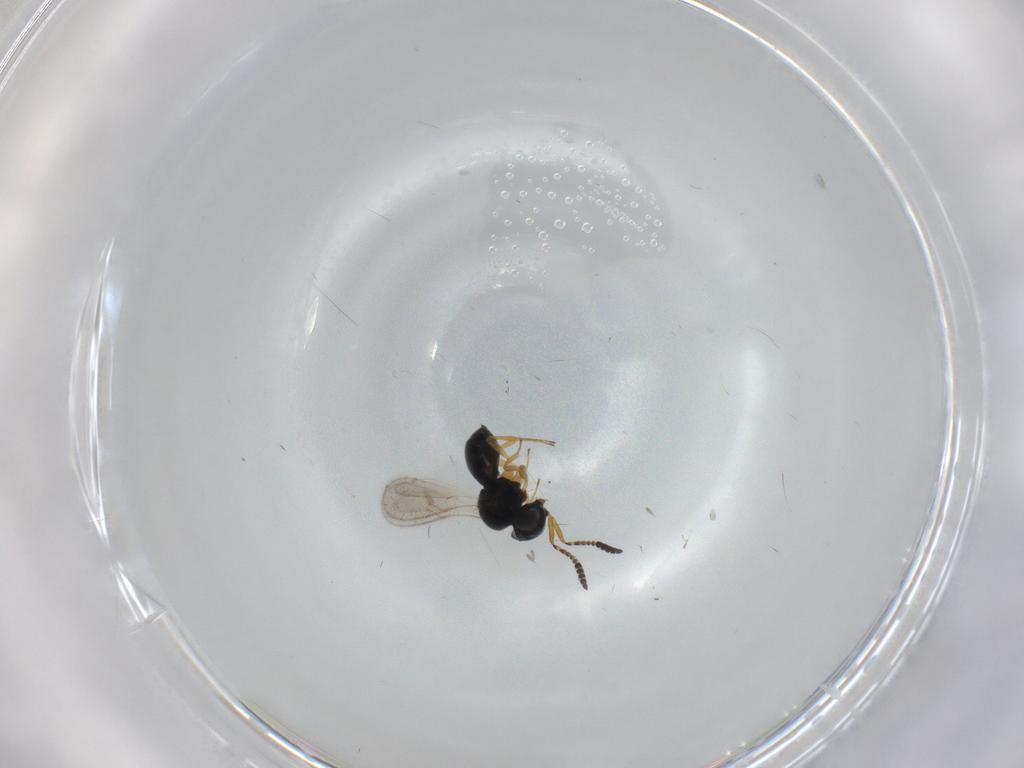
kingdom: Animalia
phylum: Arthropoda
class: Insecta
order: Hymenoptera
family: Scelionidae
